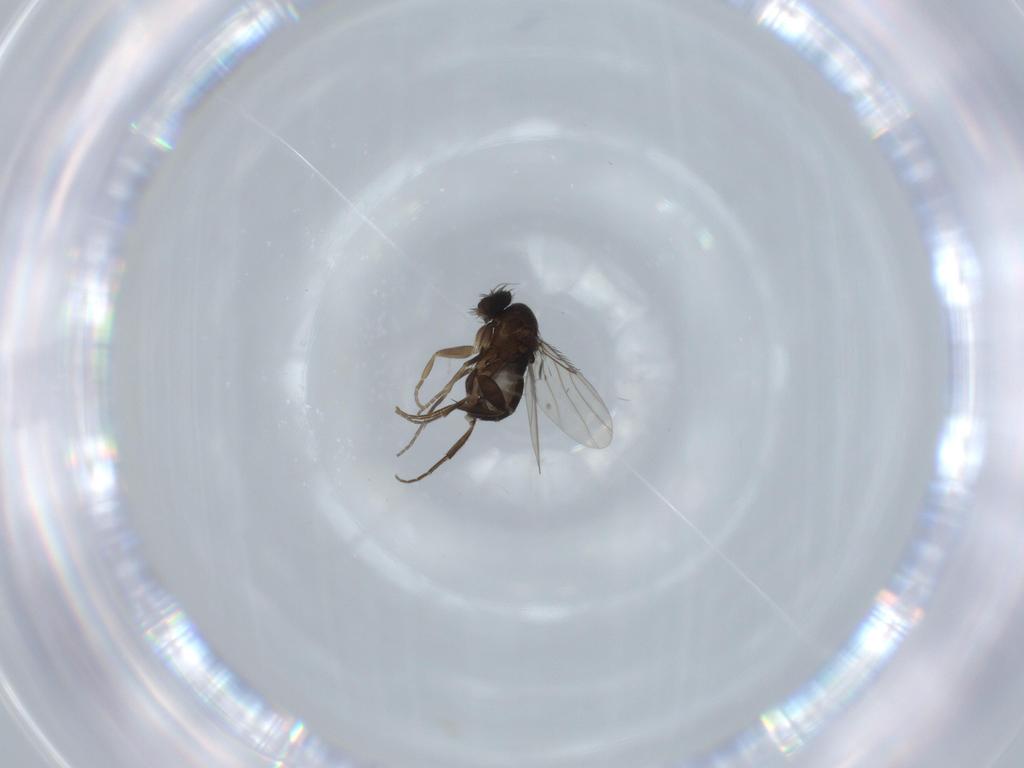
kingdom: Animalia
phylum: Arthropoda
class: Insecta
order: Diptera
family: Phoridae
